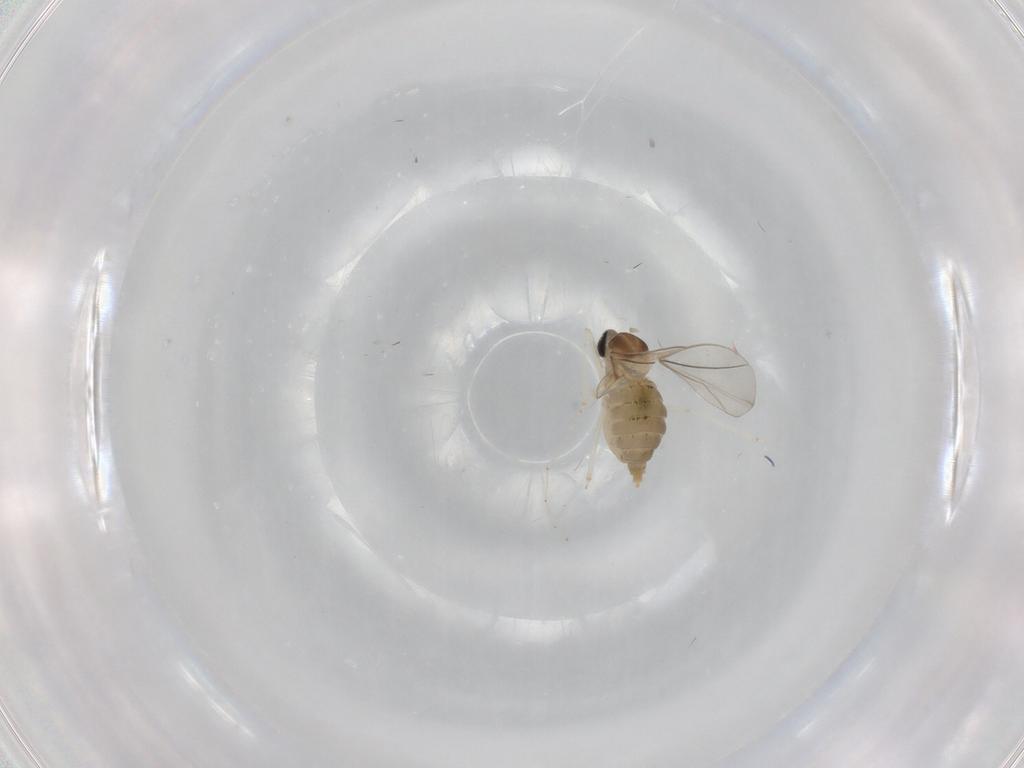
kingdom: Animalia
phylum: Arthropoda
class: Insecta
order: Diptera
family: Cecidomyiidae
